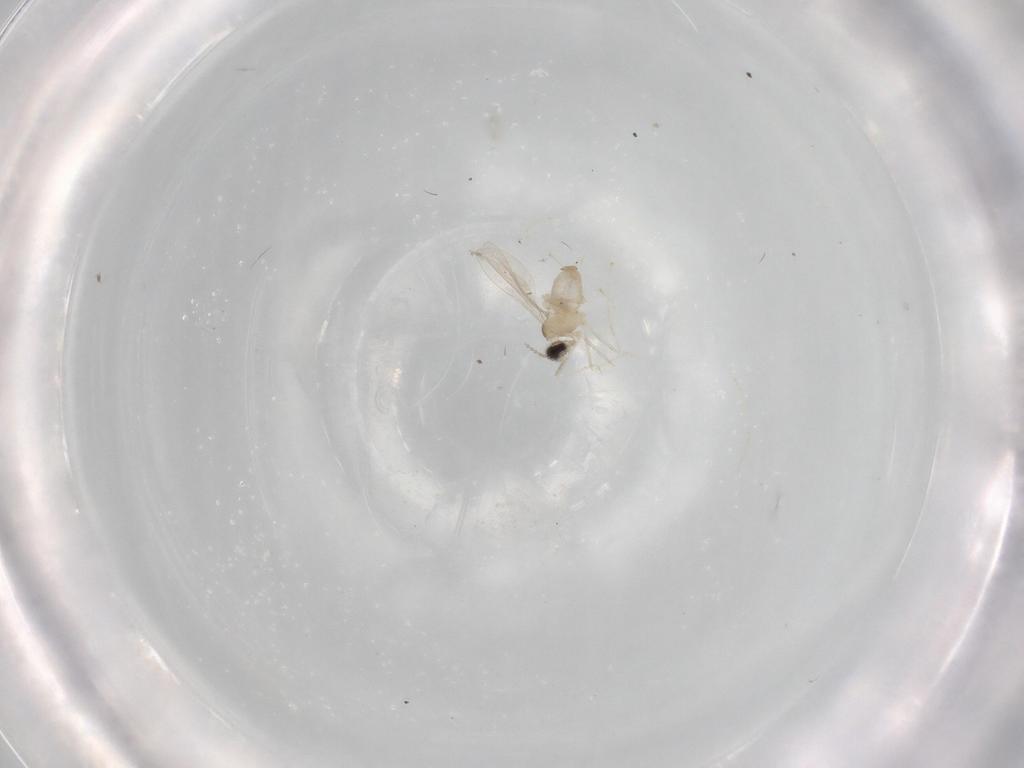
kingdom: Animalia
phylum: Arthropoda
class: Insecta
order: Diptera
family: Cecidomyiidae
